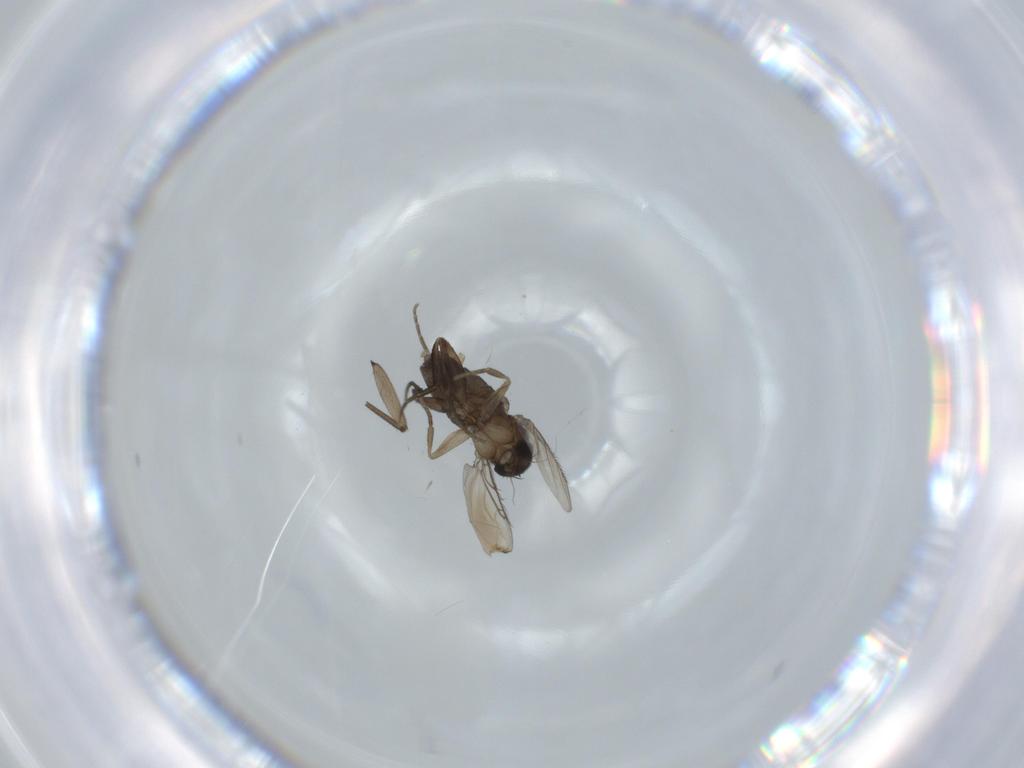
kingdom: Animalia
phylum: Arthropoda
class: Insecta
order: Diptera
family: Phoridae
